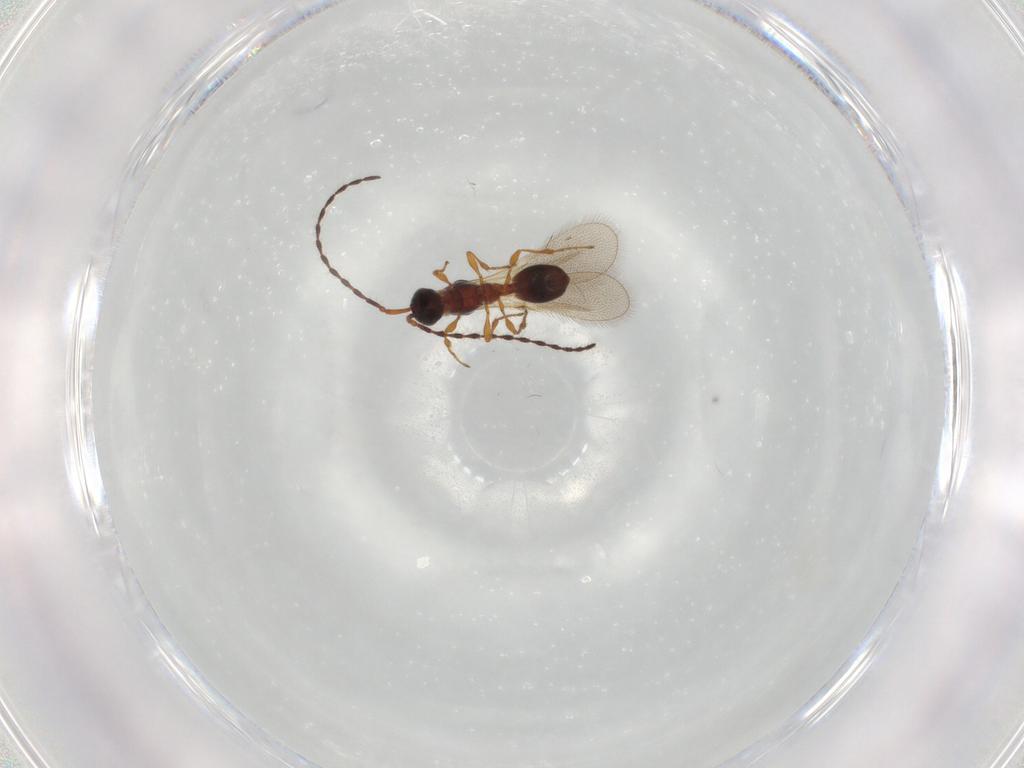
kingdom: Animalia
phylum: Arthropoda
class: Insecta
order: Hymenoptera
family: Diapriidae
